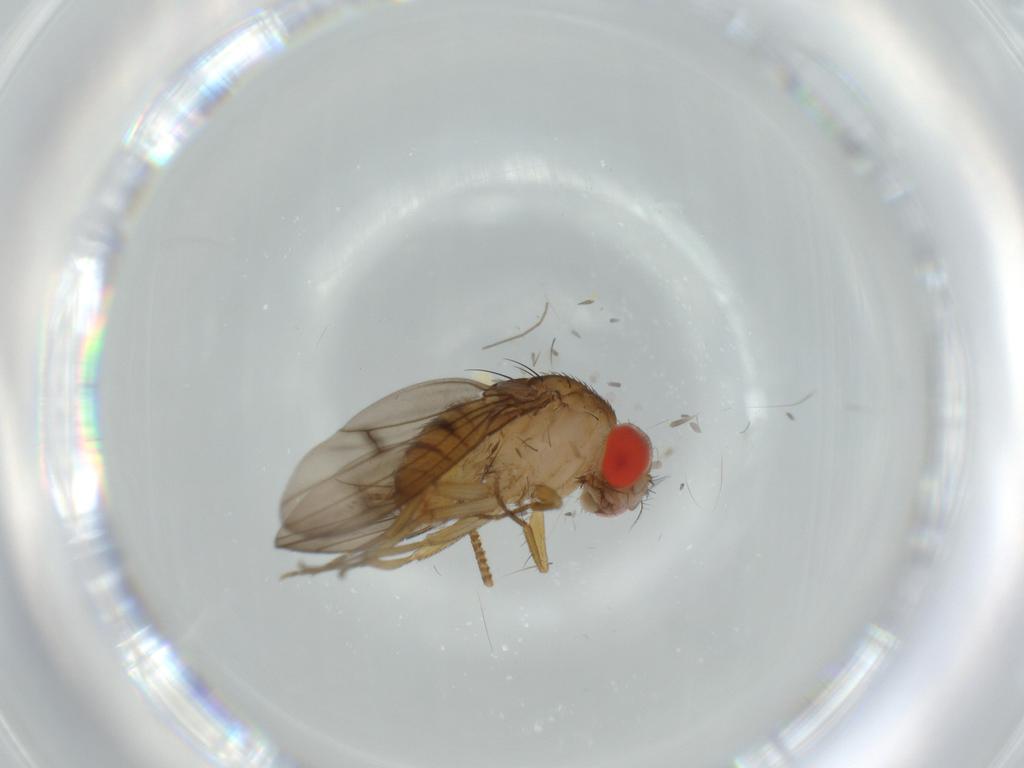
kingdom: Animalia
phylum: Arthropoda
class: Insecta
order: Diptera
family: Drosophilidae
